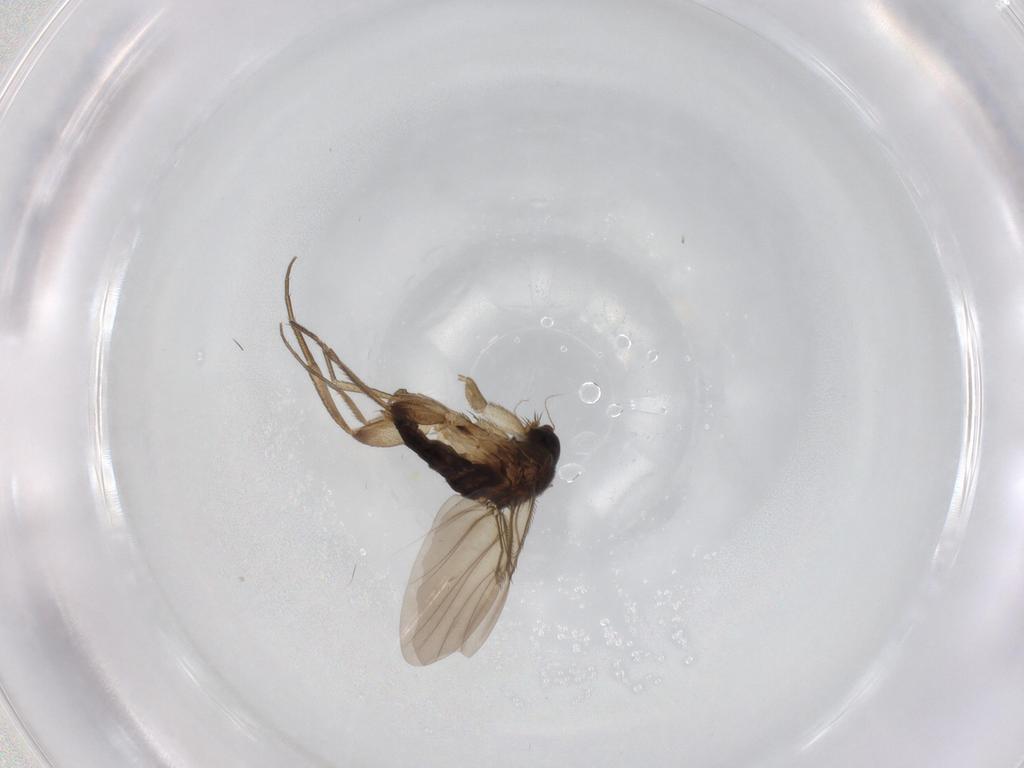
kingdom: Animalia
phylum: Arthropoda
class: Insecta
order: Diptera
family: Phoridae
